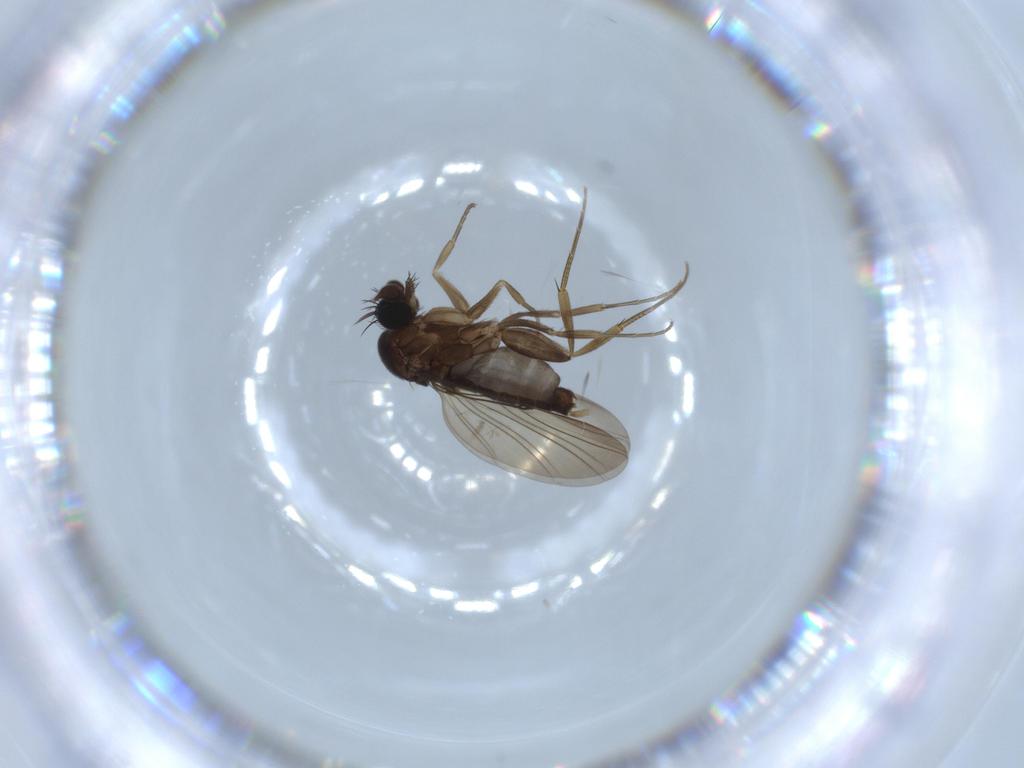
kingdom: Animalia
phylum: Arthropoda
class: Insecta
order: Diptera
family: Phoridae
